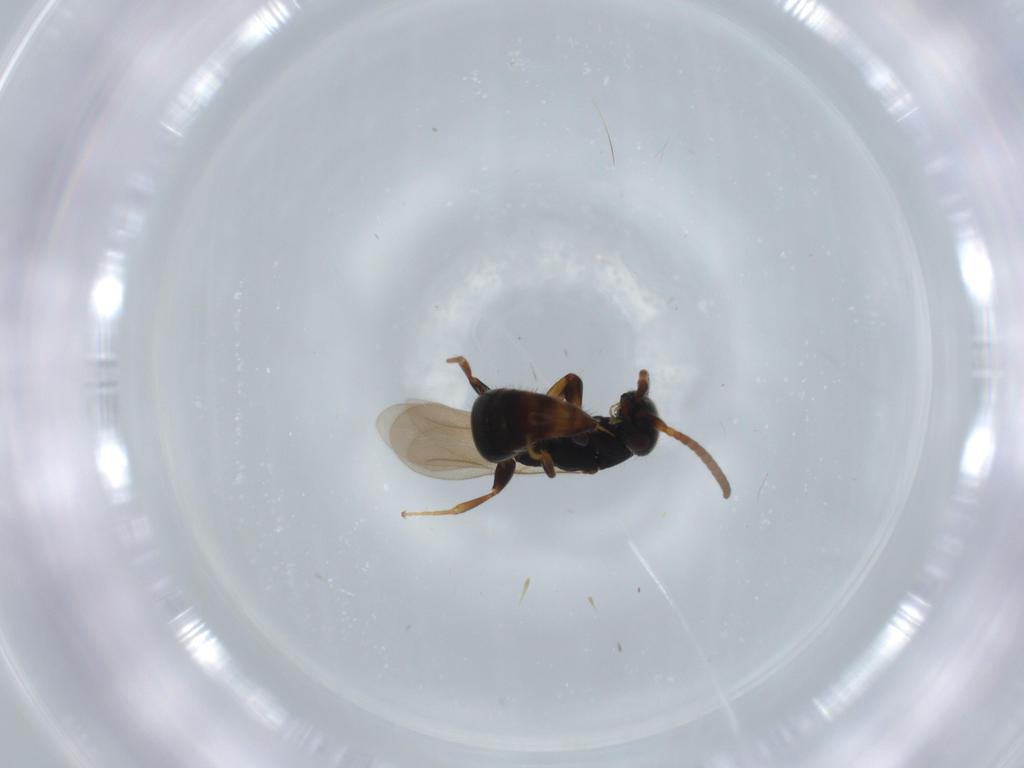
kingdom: Animalia
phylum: Arthropoda
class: Insecta
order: Hymenoptera
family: Bethylidae
